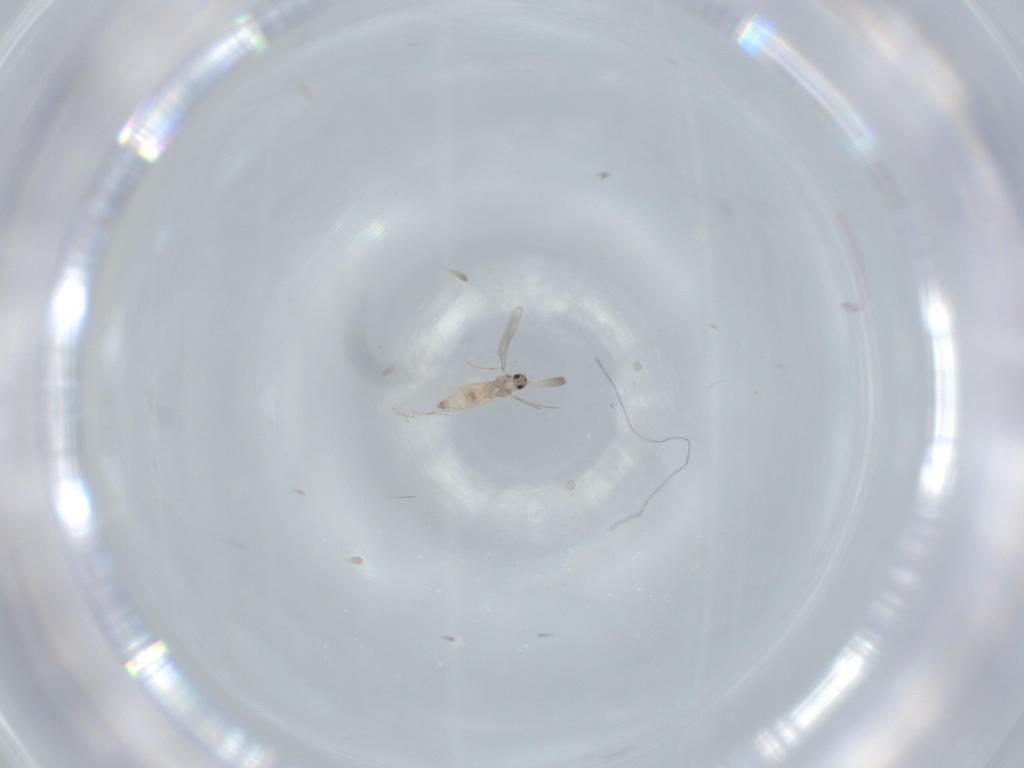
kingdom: Animalia
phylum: Arthropoda
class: Insecta
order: Diptera
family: Cecidomyiidae
